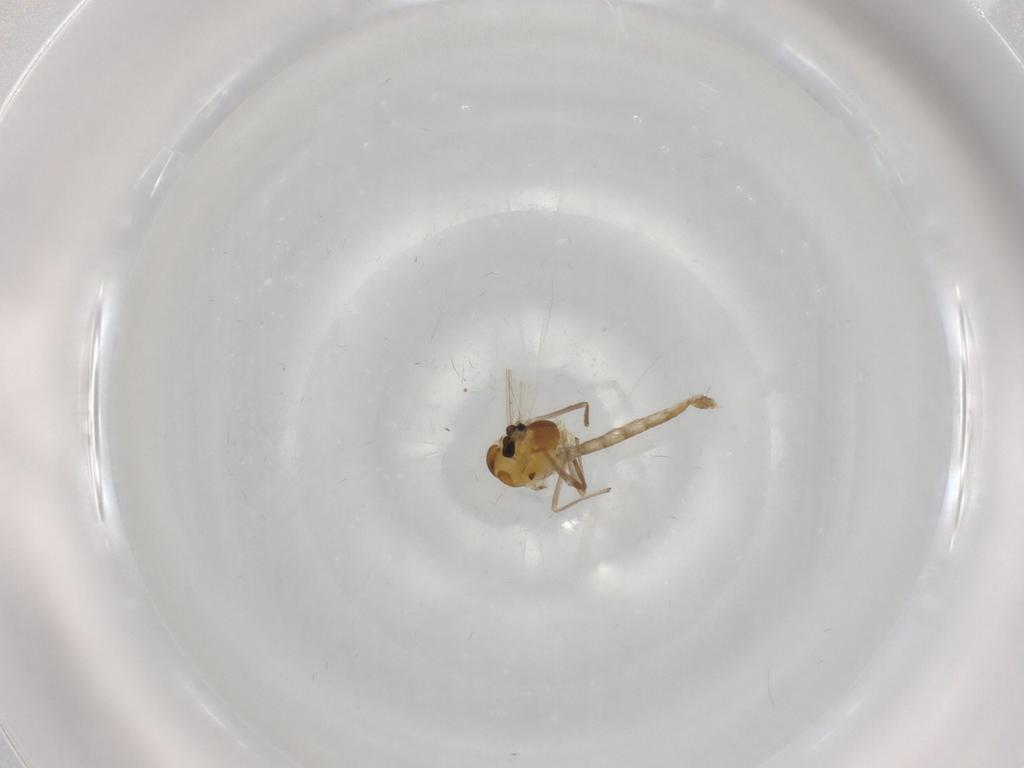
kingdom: Animalia
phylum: Arthropoda
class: Insecta
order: Diptera
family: Chironomidae
